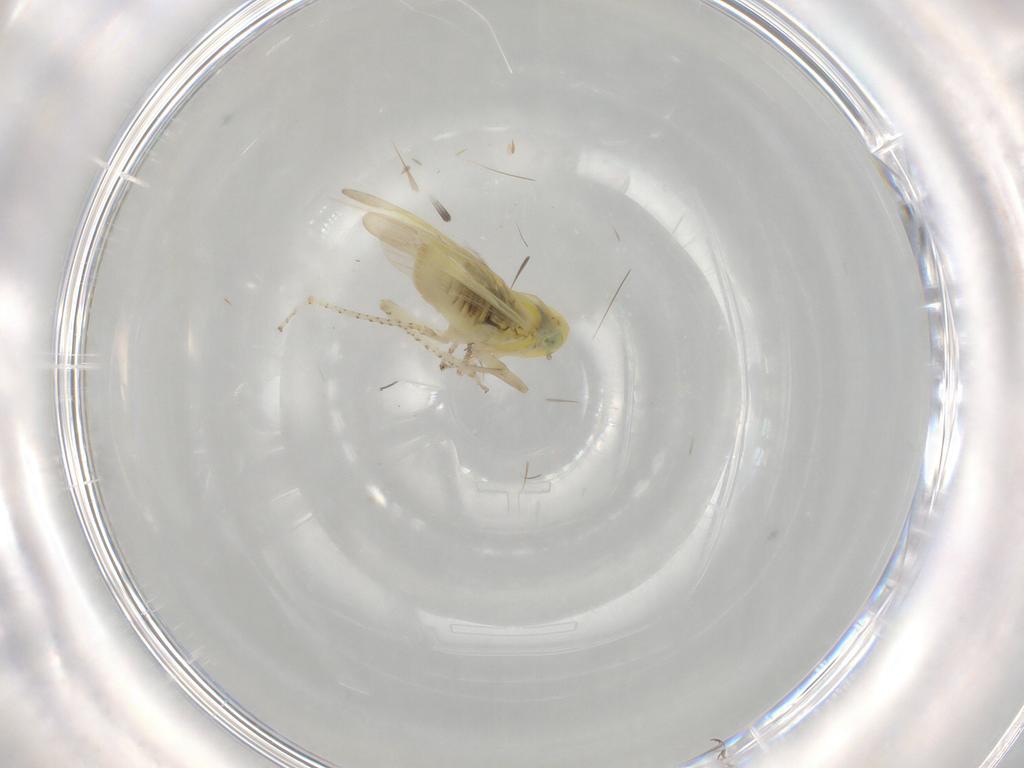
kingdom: Animalia
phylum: Arthropoda
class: Insecta
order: Hemiptera
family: Cicadellidae
